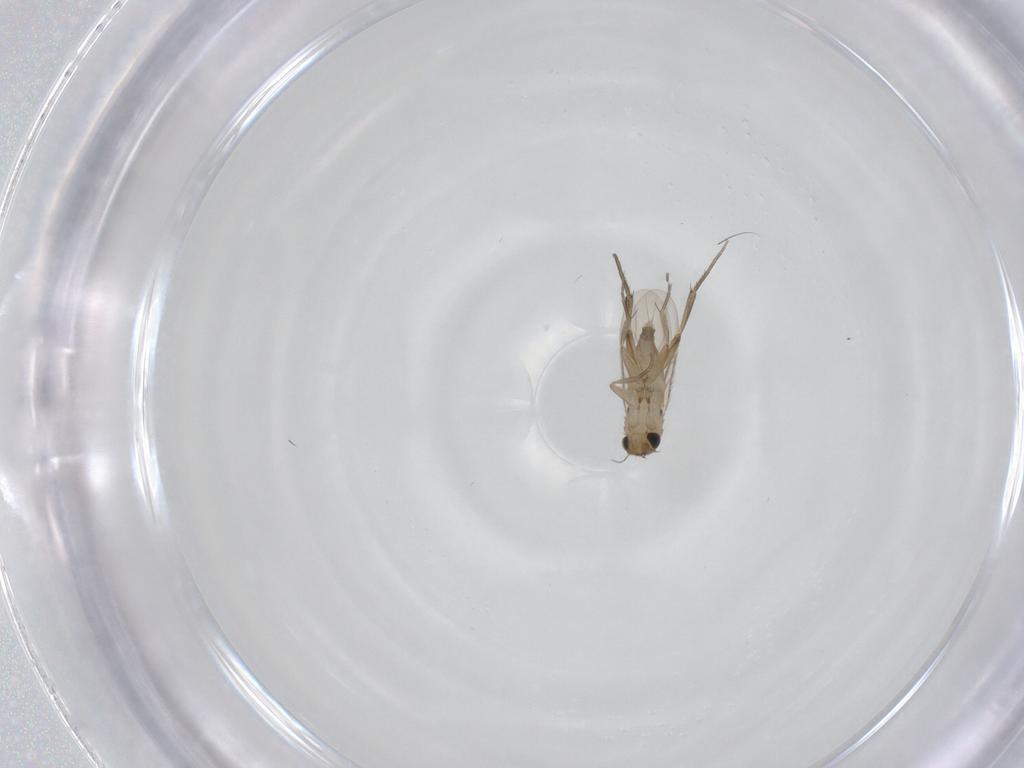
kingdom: Animalia
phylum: Arthropoda
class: Insecta
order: Diptera
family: Phoridae
